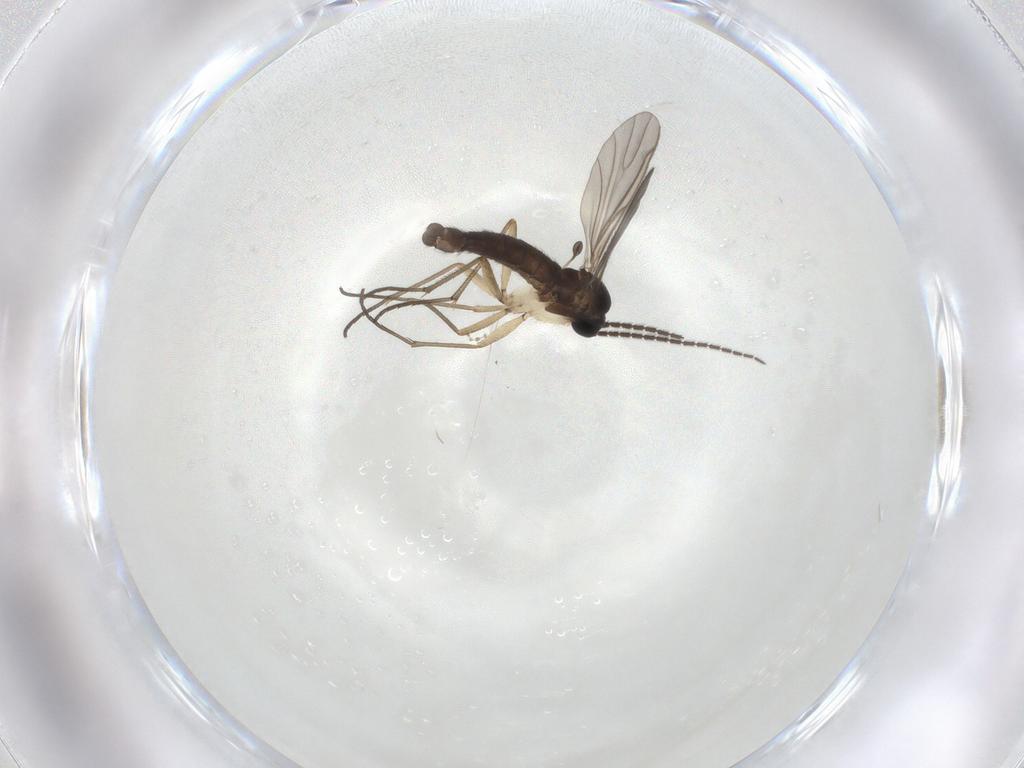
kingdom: Animalia
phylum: Arthropoda
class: Insecta
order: Diptera
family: Sciaridae
